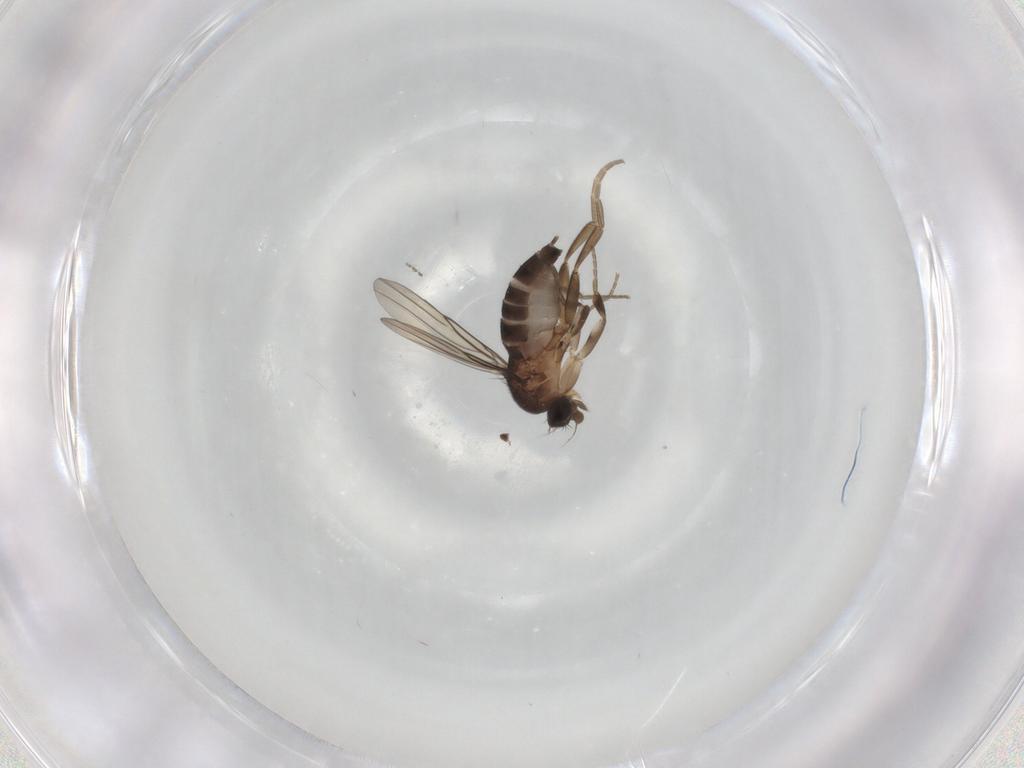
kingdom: Animalia
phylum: Arthropoda
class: Insecta
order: Diptera
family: Phoridae
